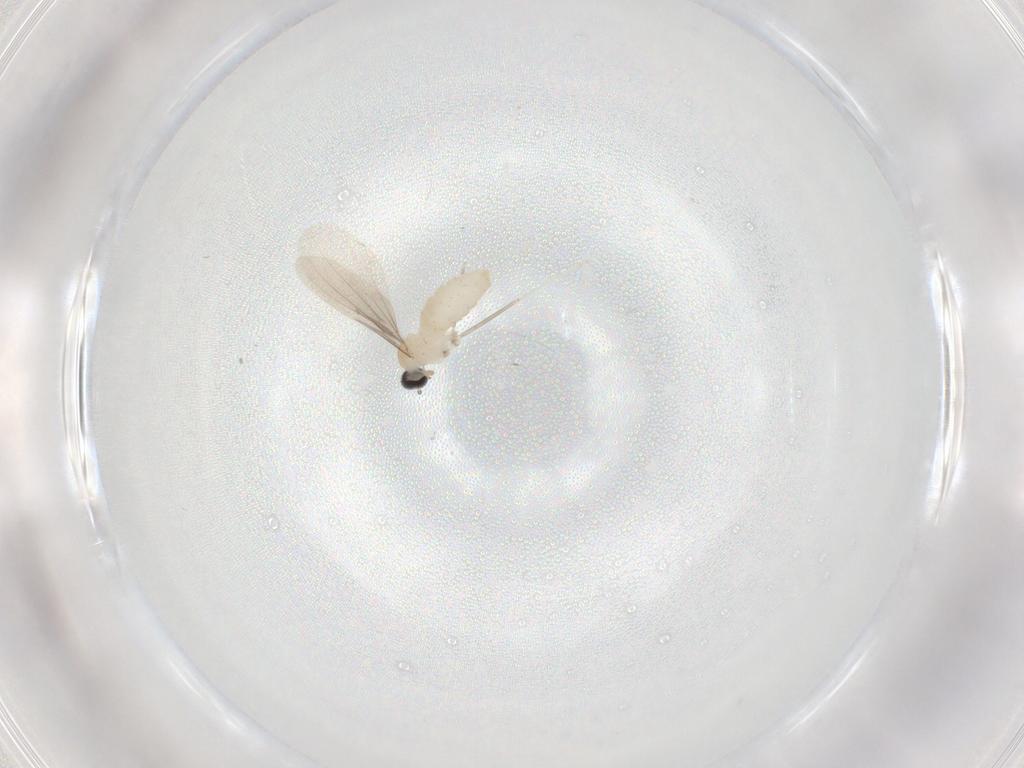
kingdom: Animalia
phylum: Arthropoda
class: Insecta
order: Diptera
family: Cecidomyiidae
